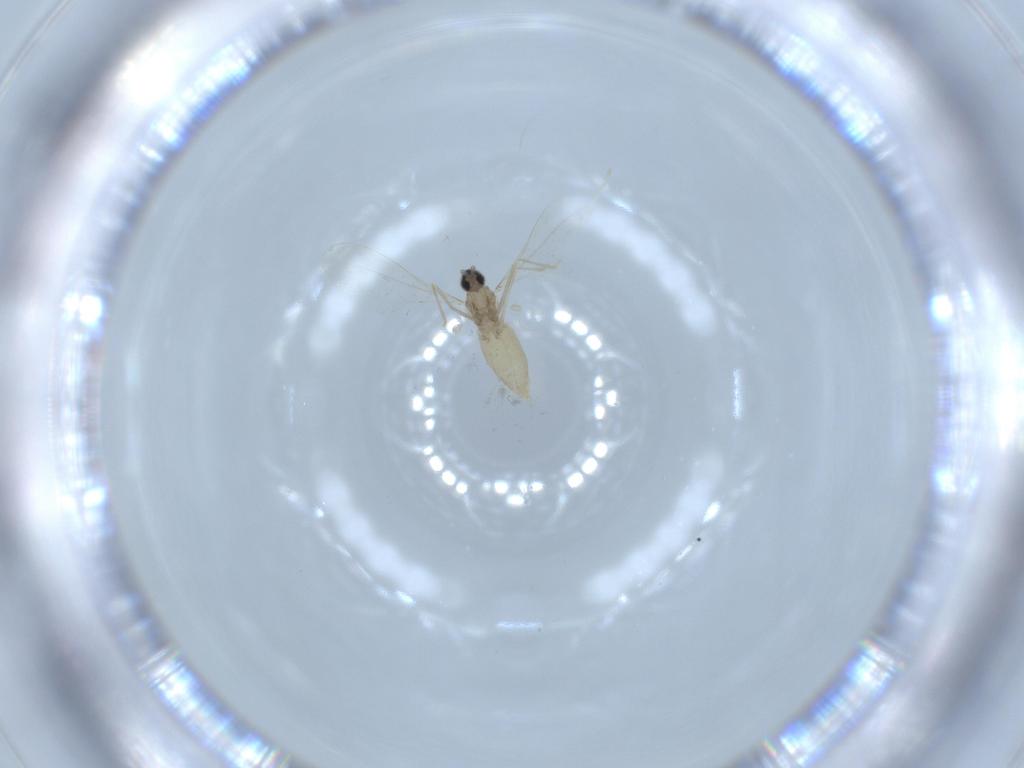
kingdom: Animalia
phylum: Arthropoda
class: Insecta
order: Diptera
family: Cecidomyiidae
